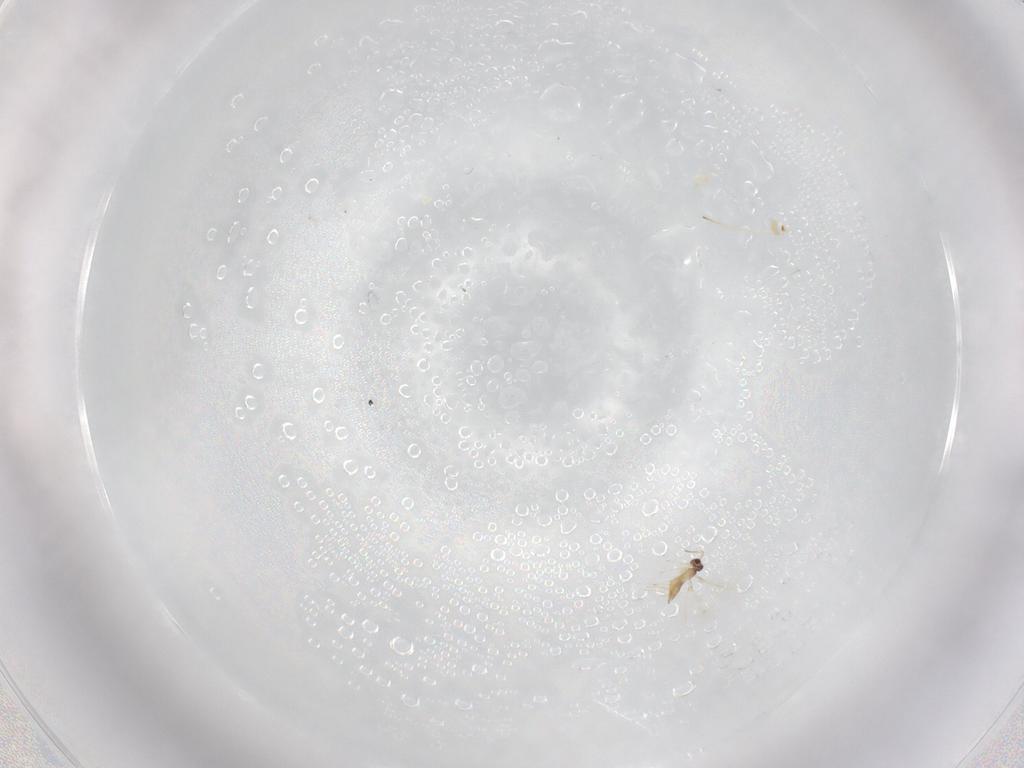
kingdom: Animalia
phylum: Arthropoda
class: Insecta
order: Hymenoptera
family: Mymaridae
